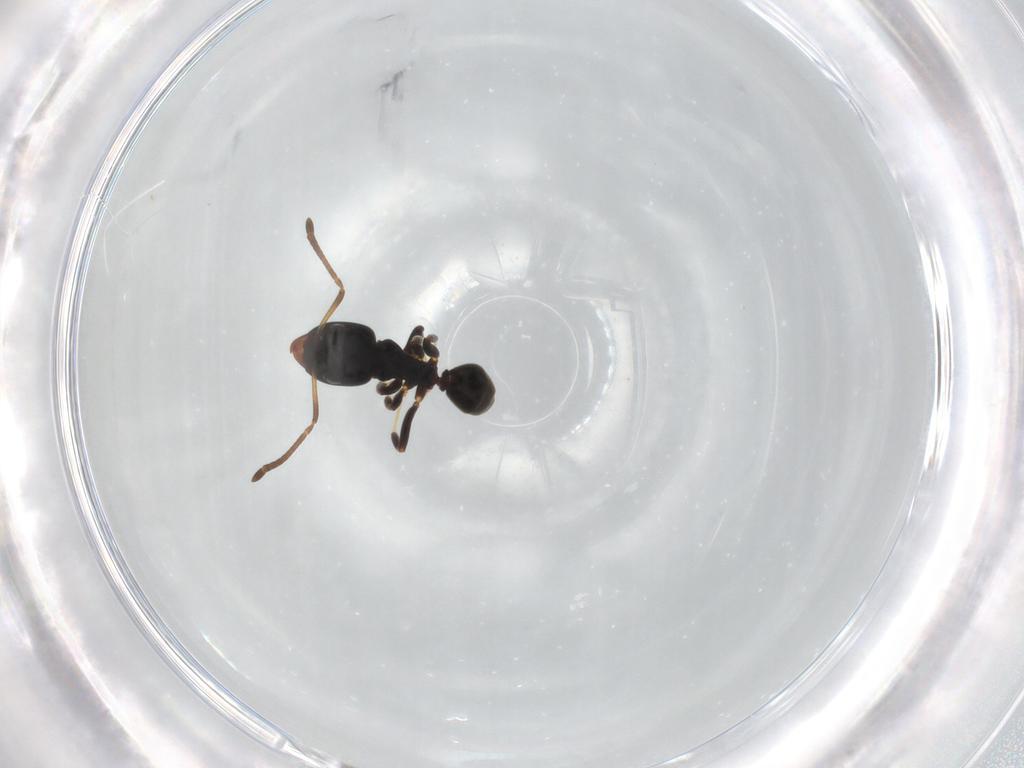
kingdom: Animalia
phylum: Arthropoda
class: Insecta
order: Hymenoptera
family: Formicidae
